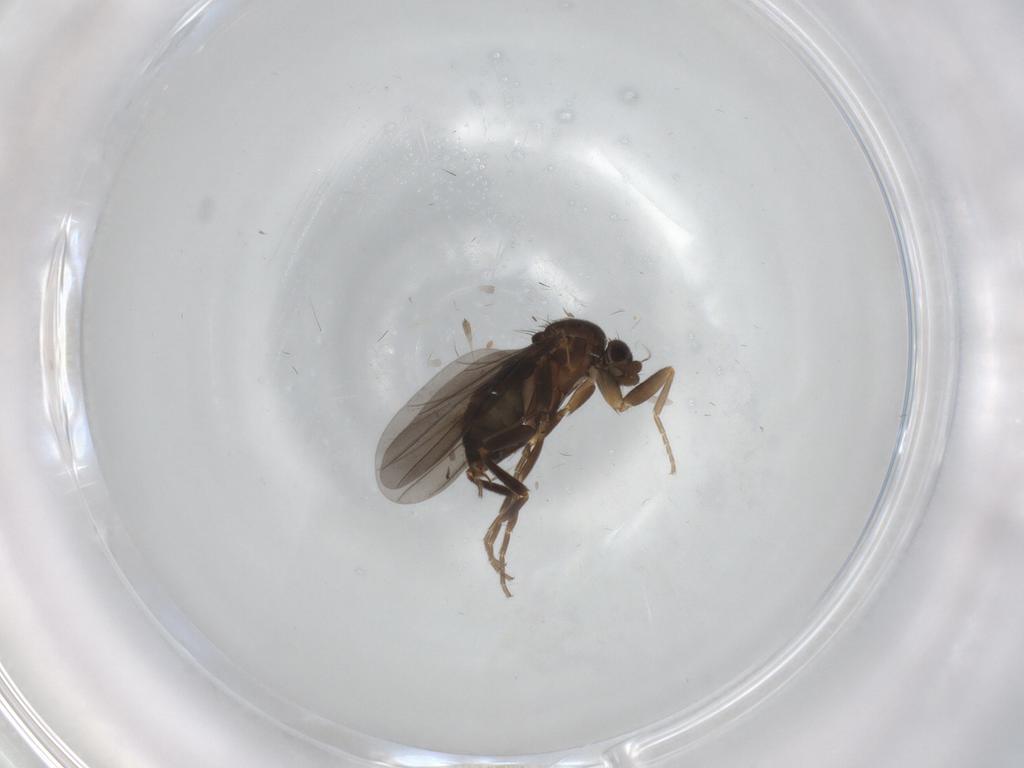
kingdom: Animalia
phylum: Arthropoda
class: Insecta
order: Diptera
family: Phoridae
